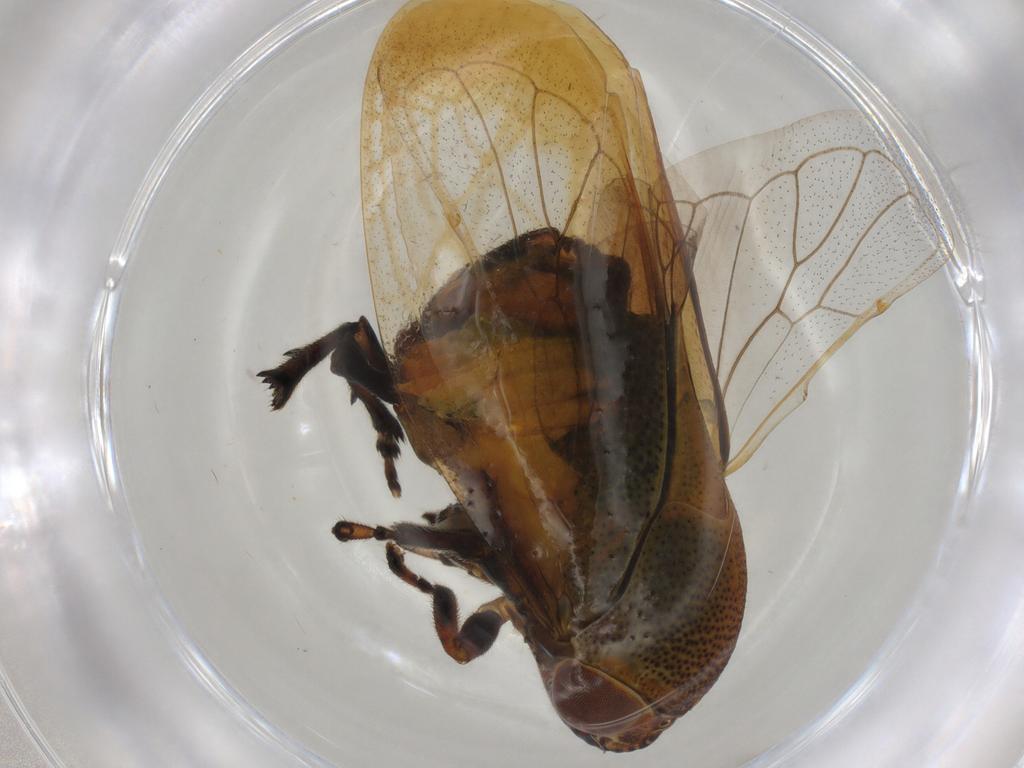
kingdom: Animalia
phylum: Arthropoda
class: Insecta
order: Hemiptera
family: Machaerotidae
